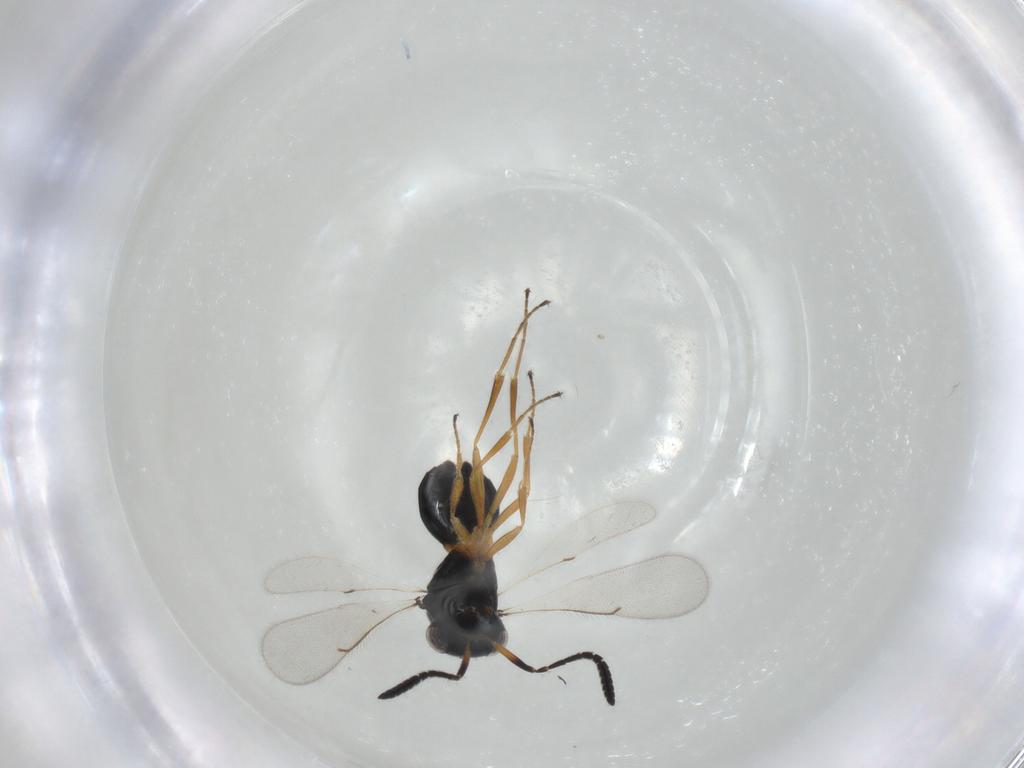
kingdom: Animalia
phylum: Arthropoda
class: Insecta
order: Hymenoptera
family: Scelionidae
